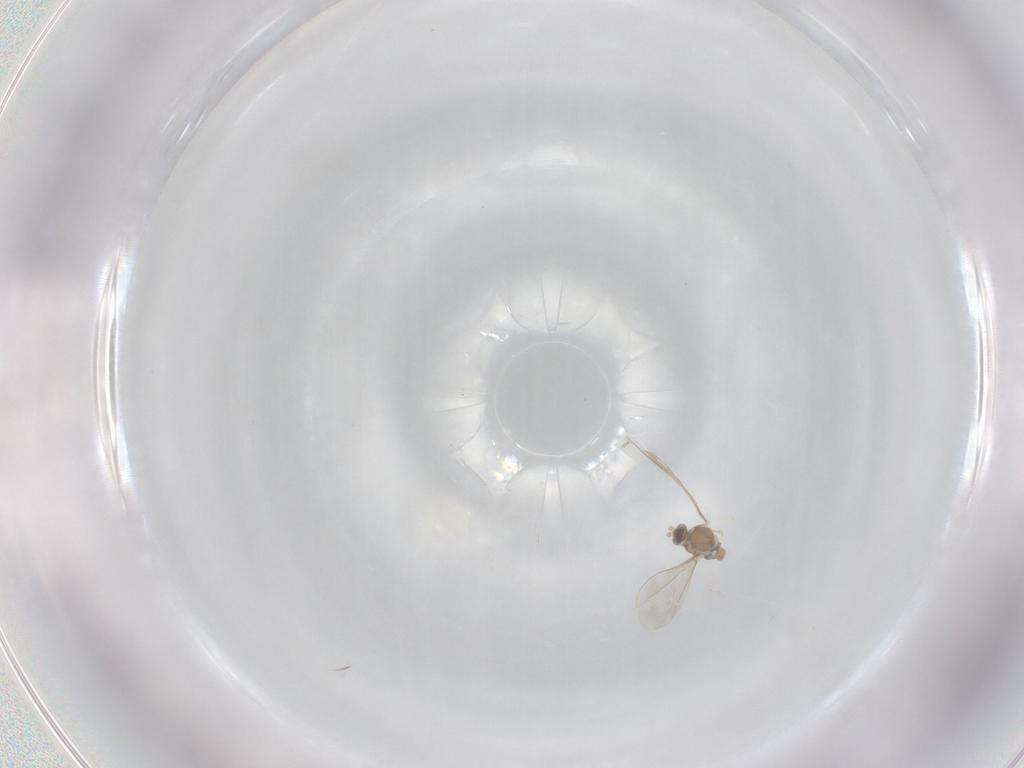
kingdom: Animalia
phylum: Arthropoda
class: Insecta
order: Diptera
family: Cecidomyiidae
